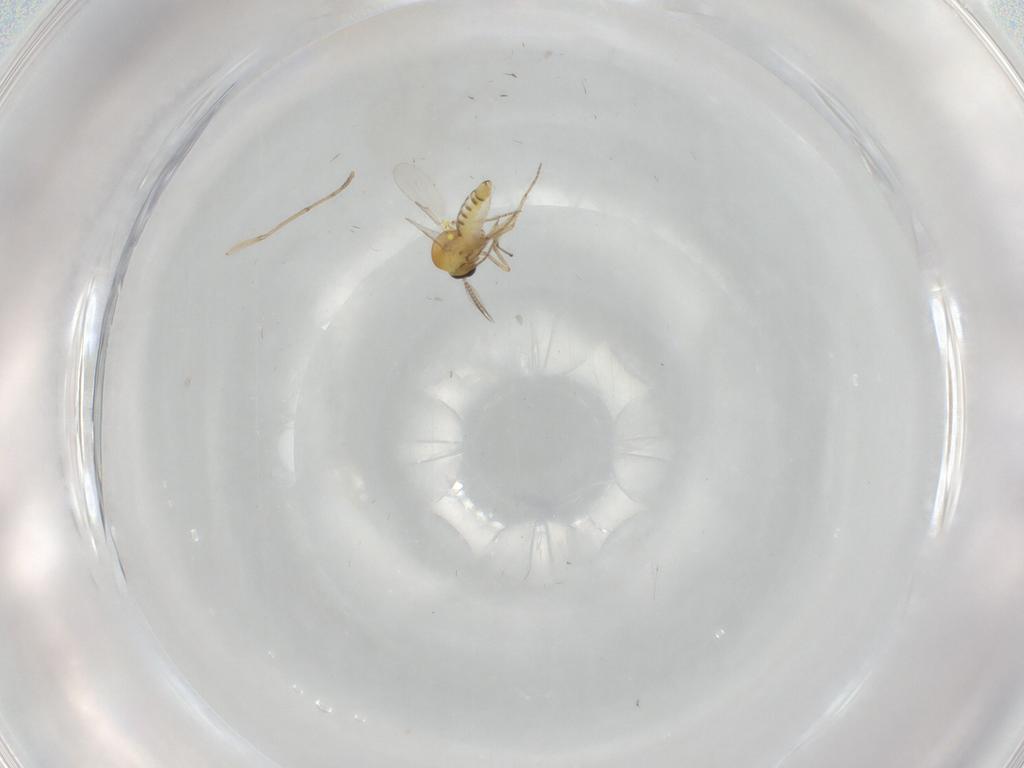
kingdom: Animalia
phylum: Arthropoda
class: Insecta
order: Diptera
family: Ceratopogonidae
